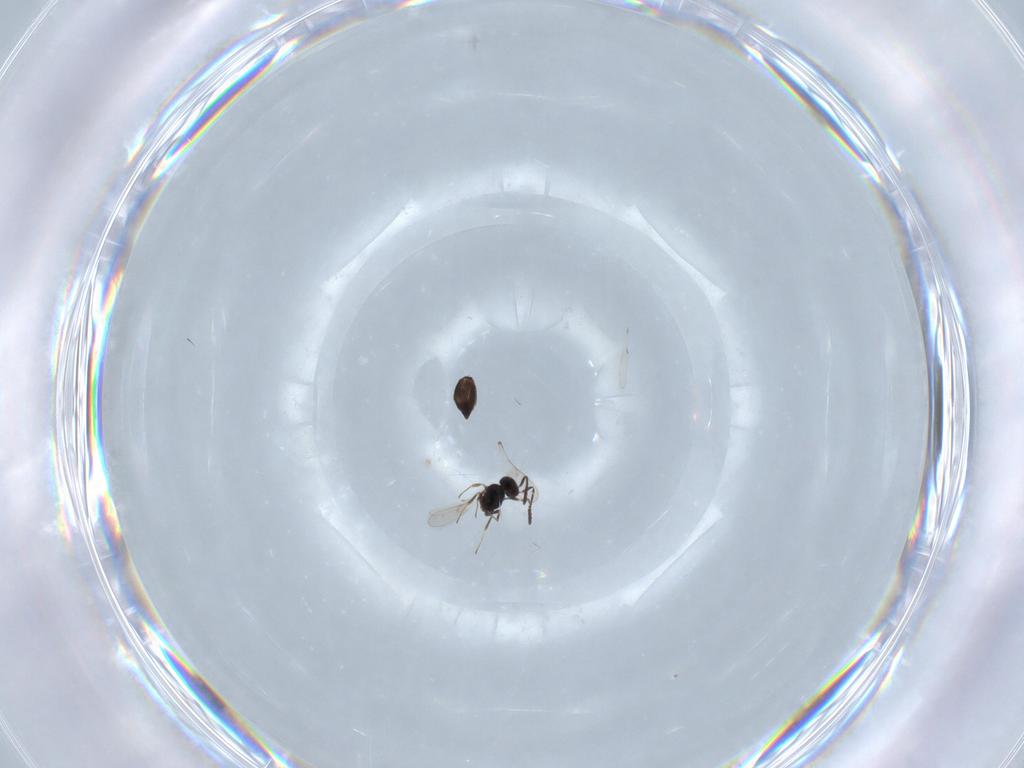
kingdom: Animalia
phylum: Arthropoda
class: Insecta
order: Hymenoptera
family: Scelionidae
